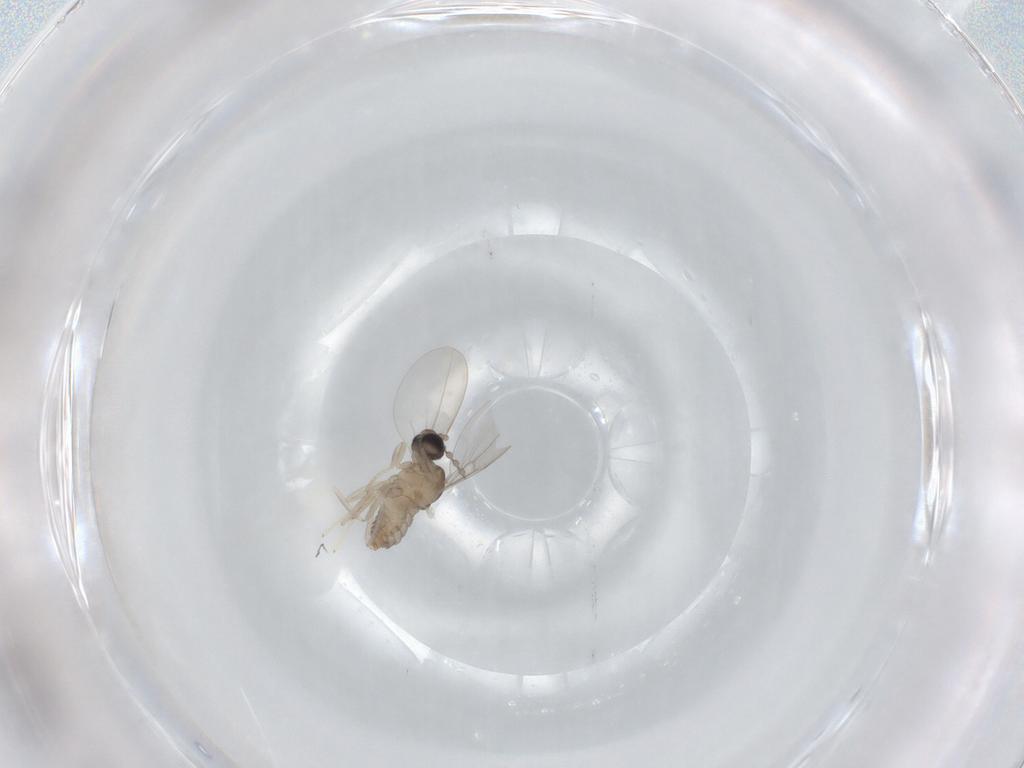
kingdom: Animalia
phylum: Arthropoda
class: Insecta
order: Diptera
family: Cecidomyiidae
